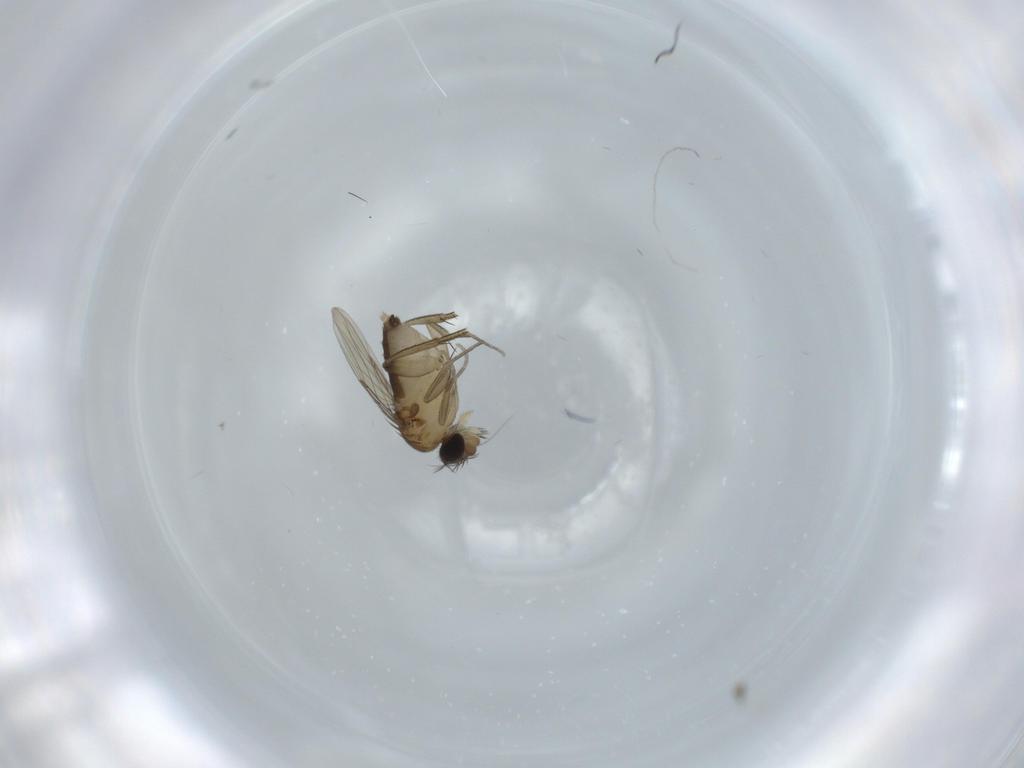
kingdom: Animalia
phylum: Arthropoda
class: Insecta
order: Diptera
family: Phoridae
